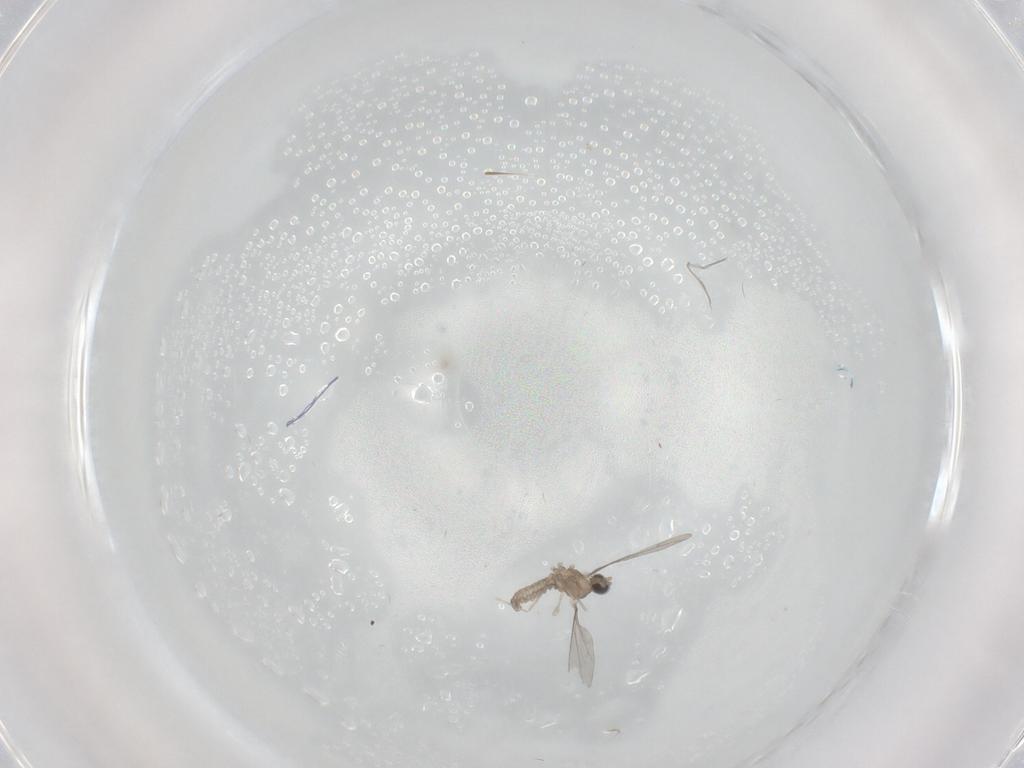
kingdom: Animalia
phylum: Arthropoda
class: Insecta
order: Diptera
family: Cecidomyiidae
